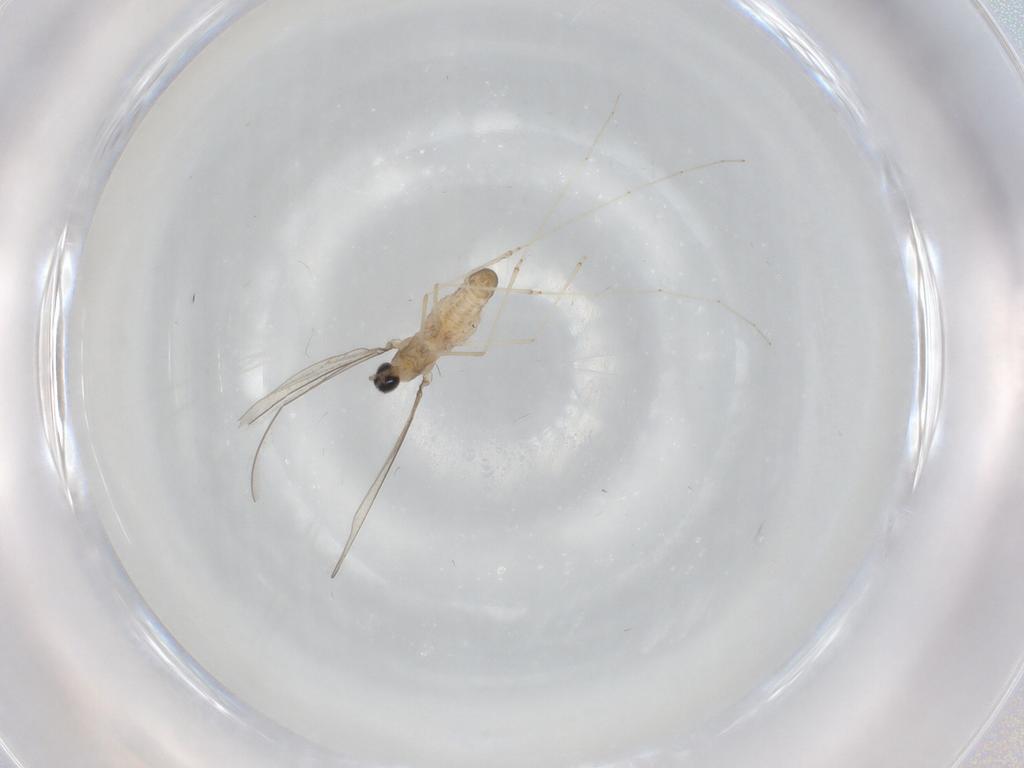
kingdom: Animalia
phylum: Arthropoda
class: Insecta
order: Diptera
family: Cecidomyiidae
